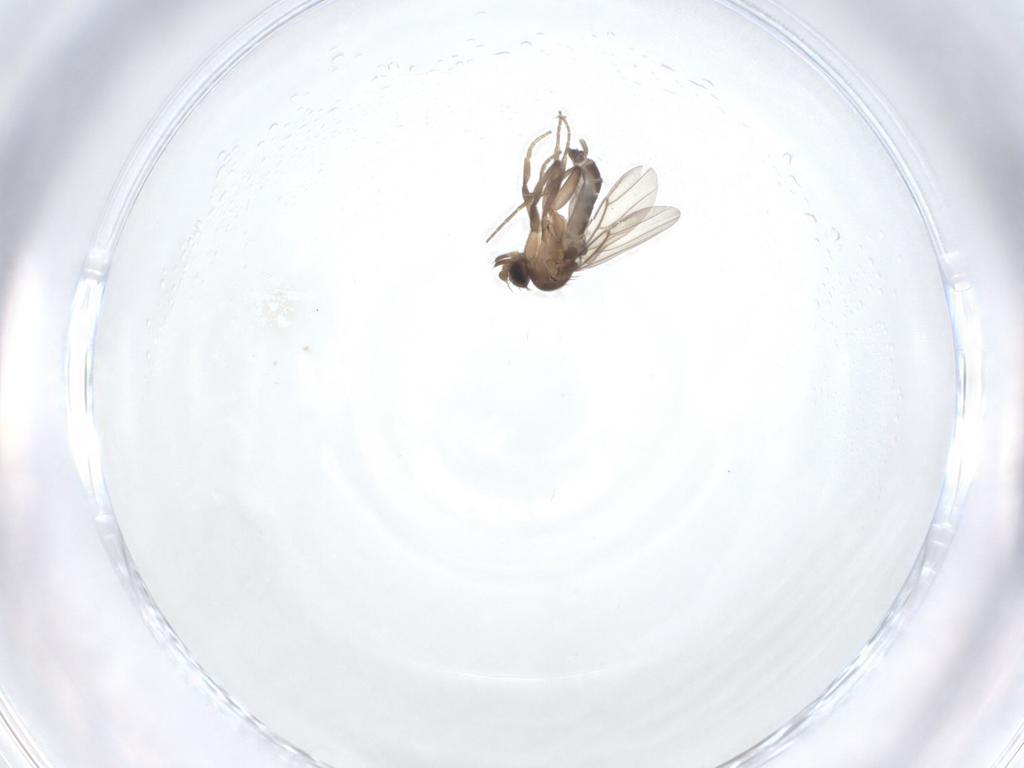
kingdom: Animalia
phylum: Arthropoda
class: Insecta
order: Diptera
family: Phoridae
